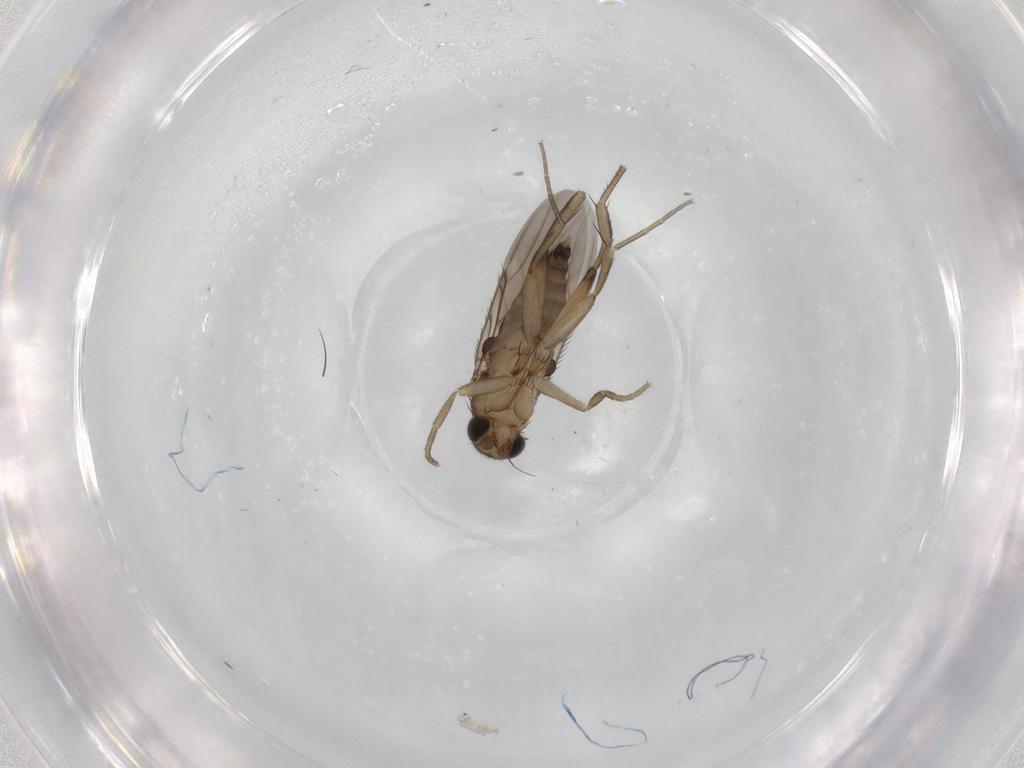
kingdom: Animalia
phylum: Arthropoda
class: Insecta
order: Diptera
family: Phoridae
